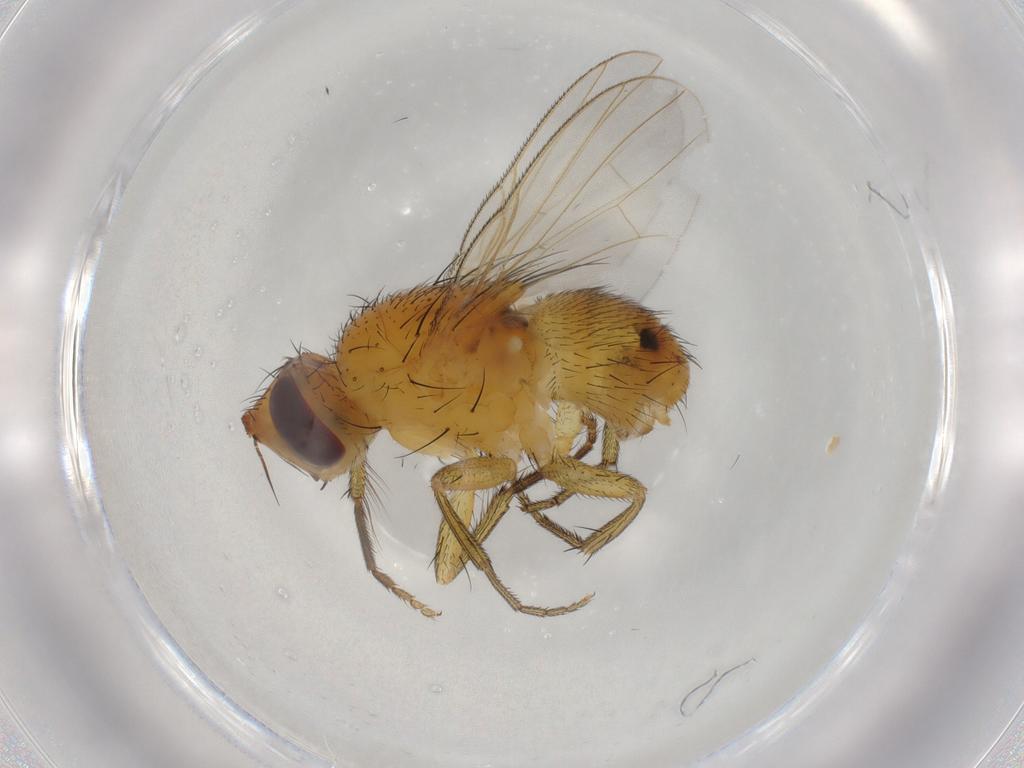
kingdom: Animalia
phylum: Arthropoda
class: Insecta
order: Diptera
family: Muscidae
